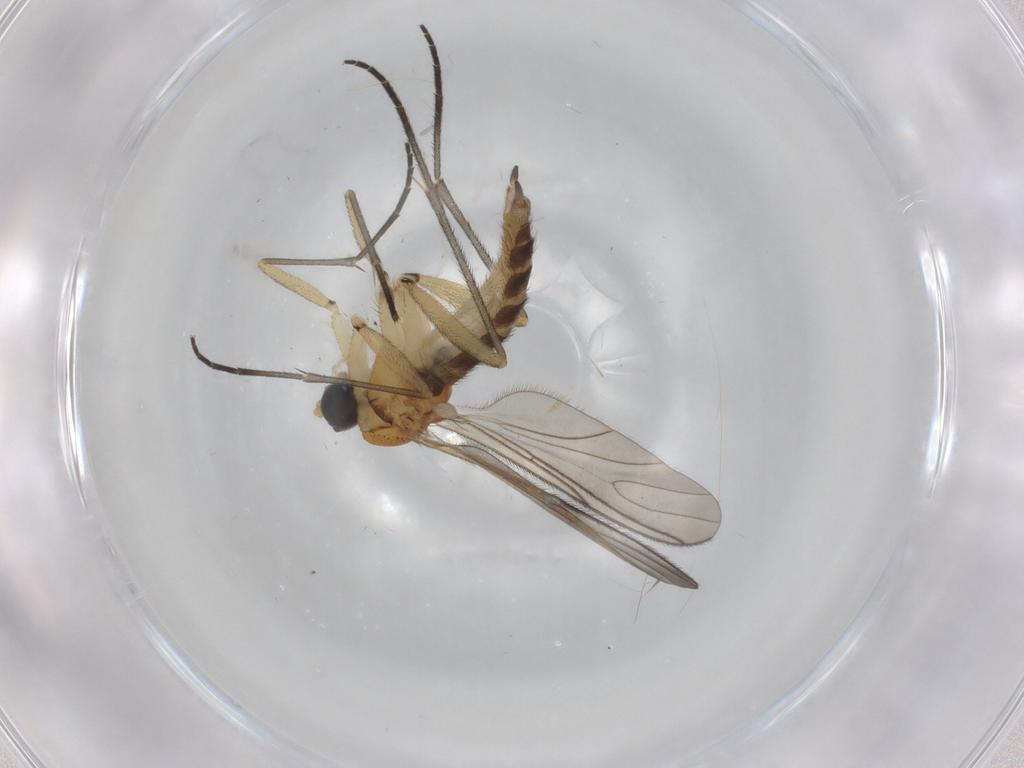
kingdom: Animalia
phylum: Arthropoda
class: Insecta
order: Diptera
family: Sciaridae
